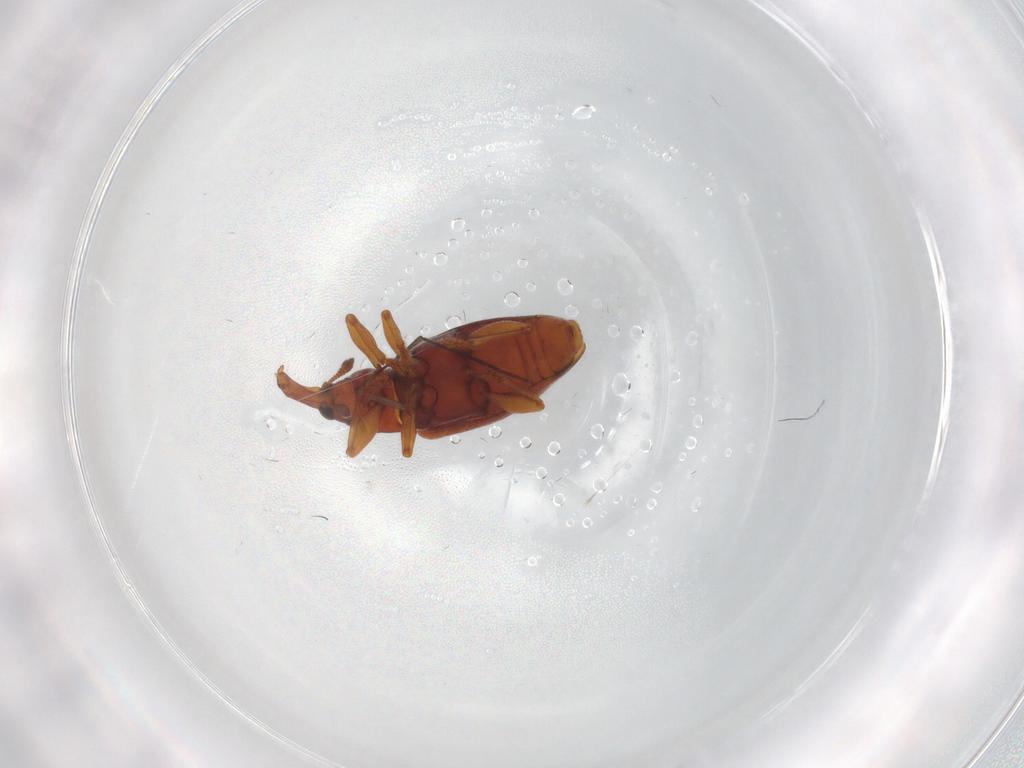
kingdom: Animalia
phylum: Arthropoda
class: Insecta
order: Coleoptera
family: Curculionidae
